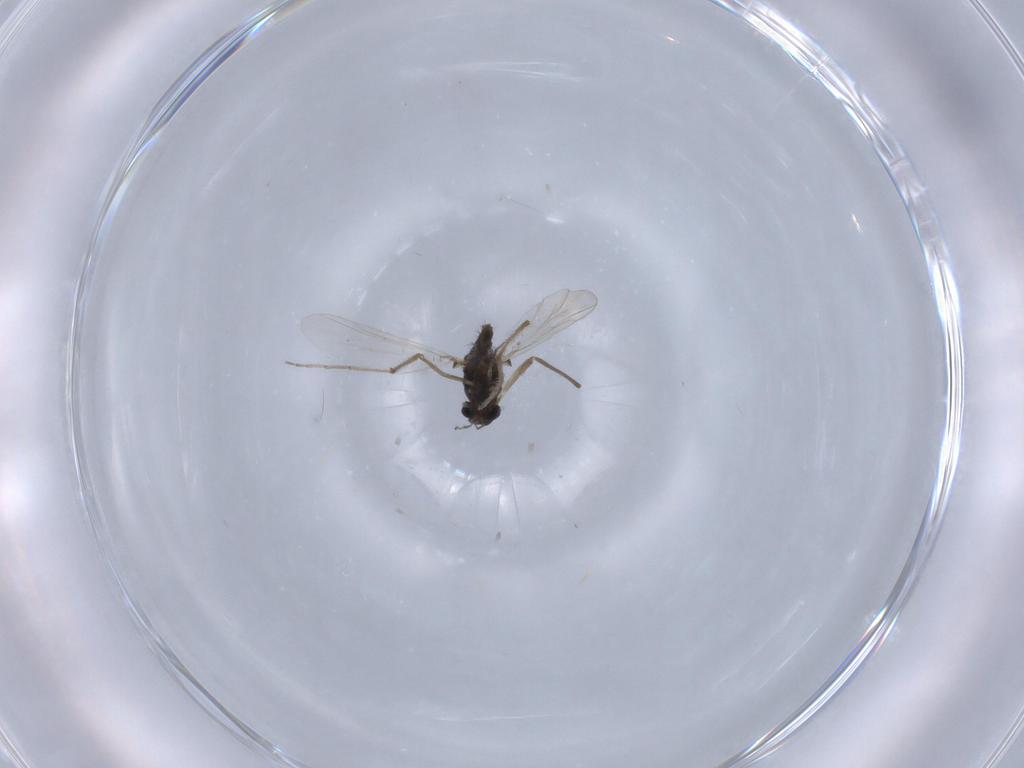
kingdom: Animalia
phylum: Arthropoda
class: Insecta
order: Diptera
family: Chironomidae
